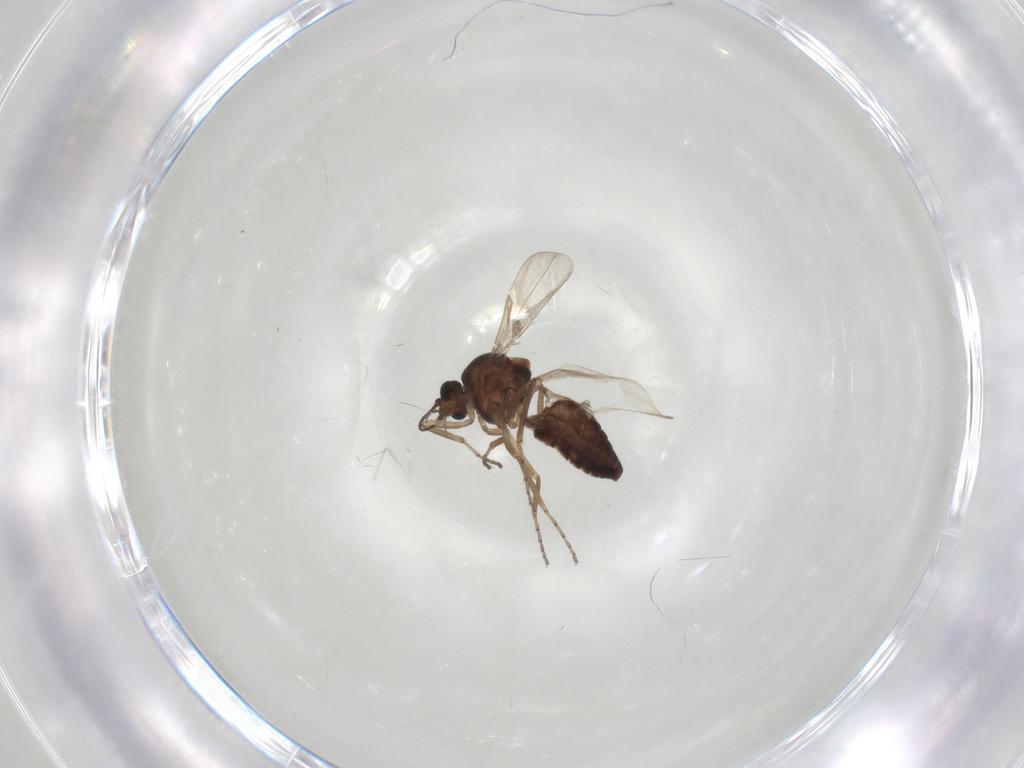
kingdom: Animalia
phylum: Arthropoda
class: Insecta
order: Diptera
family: Ceratopogonidae
